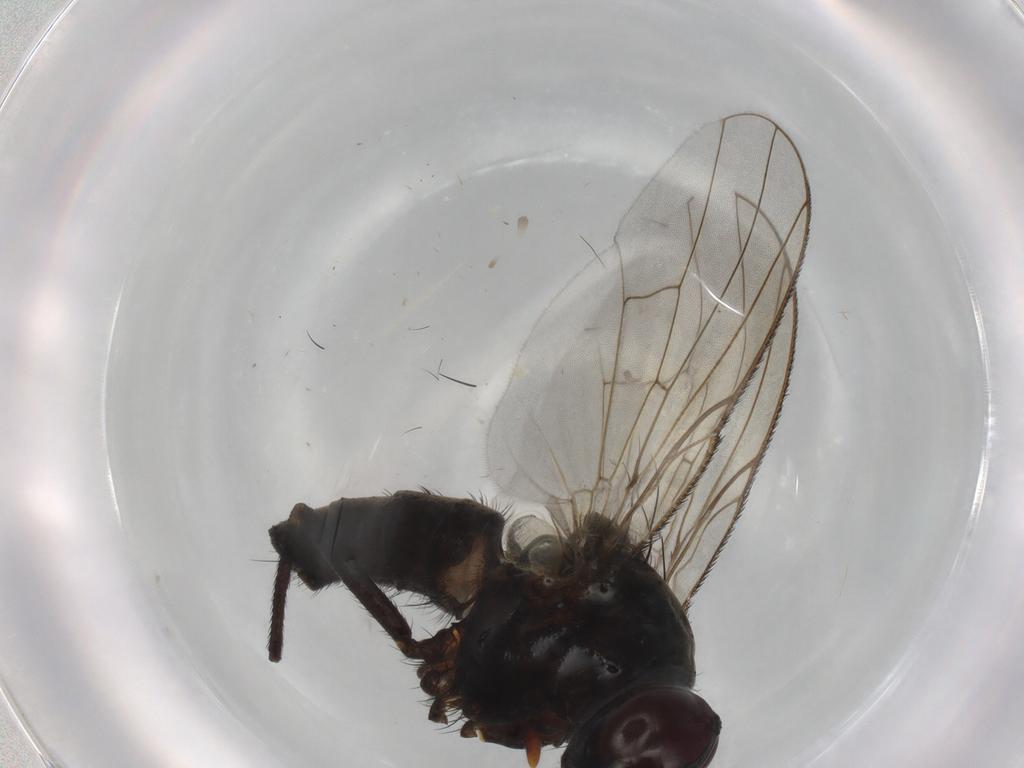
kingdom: Animalia
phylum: Arthropoda
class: Insecta
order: Diptera
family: Muscidae
